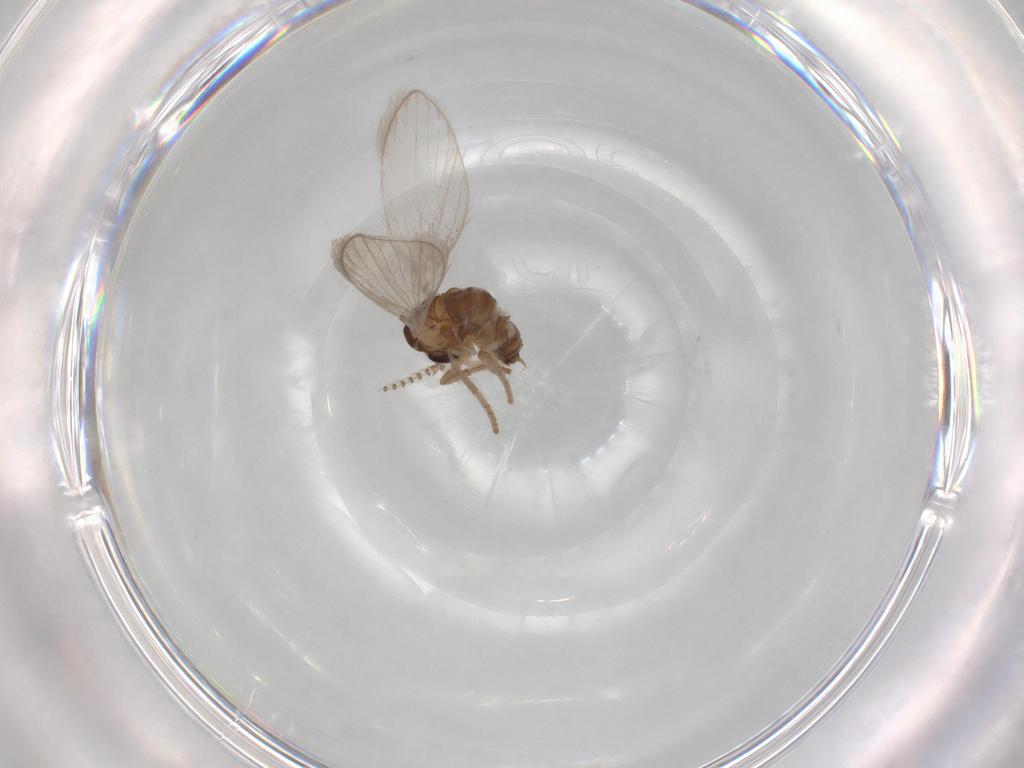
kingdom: Animalia
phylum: Arthropoda
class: Insecta
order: Diptera
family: Psychodidae
